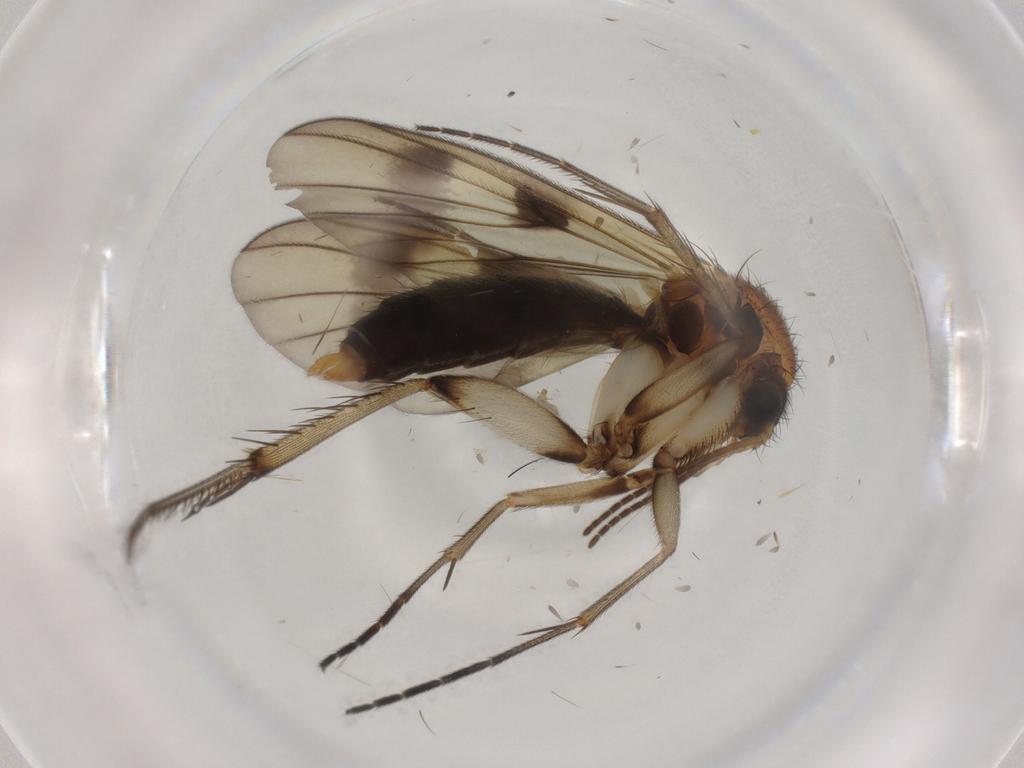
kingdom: Animalia
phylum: Arthropoda
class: Insecta
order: Diptera
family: Mycetophilidae
